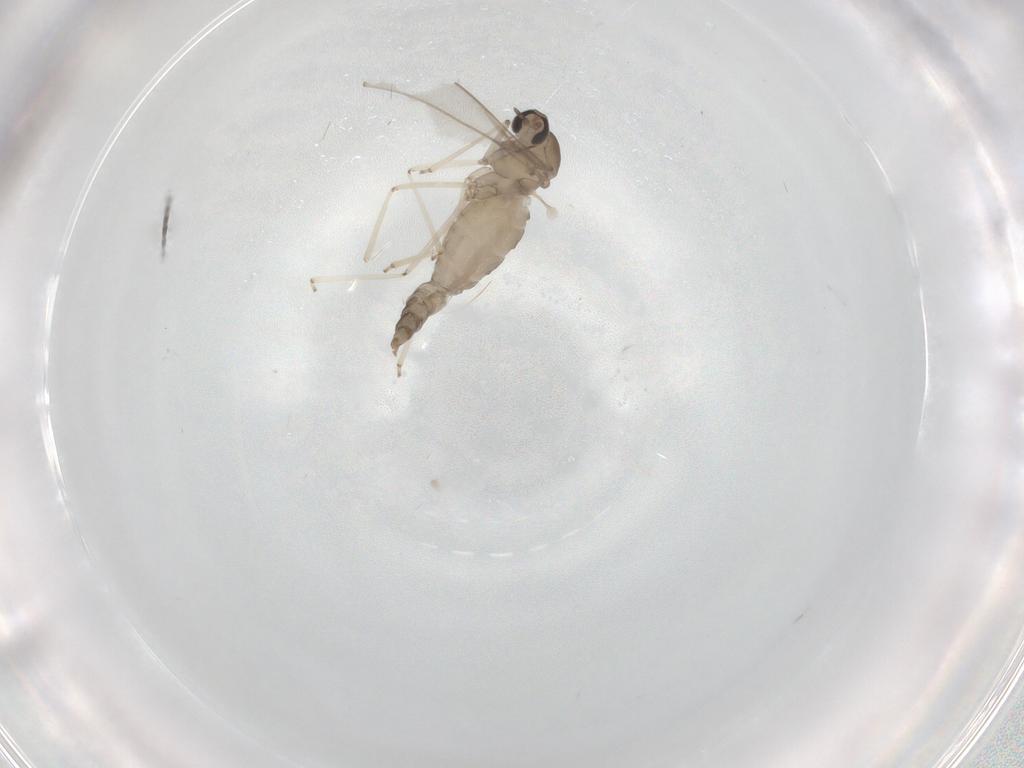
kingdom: Animalia
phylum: Arthropoda
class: Insecta
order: Diptera
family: Cecidomyiidae
